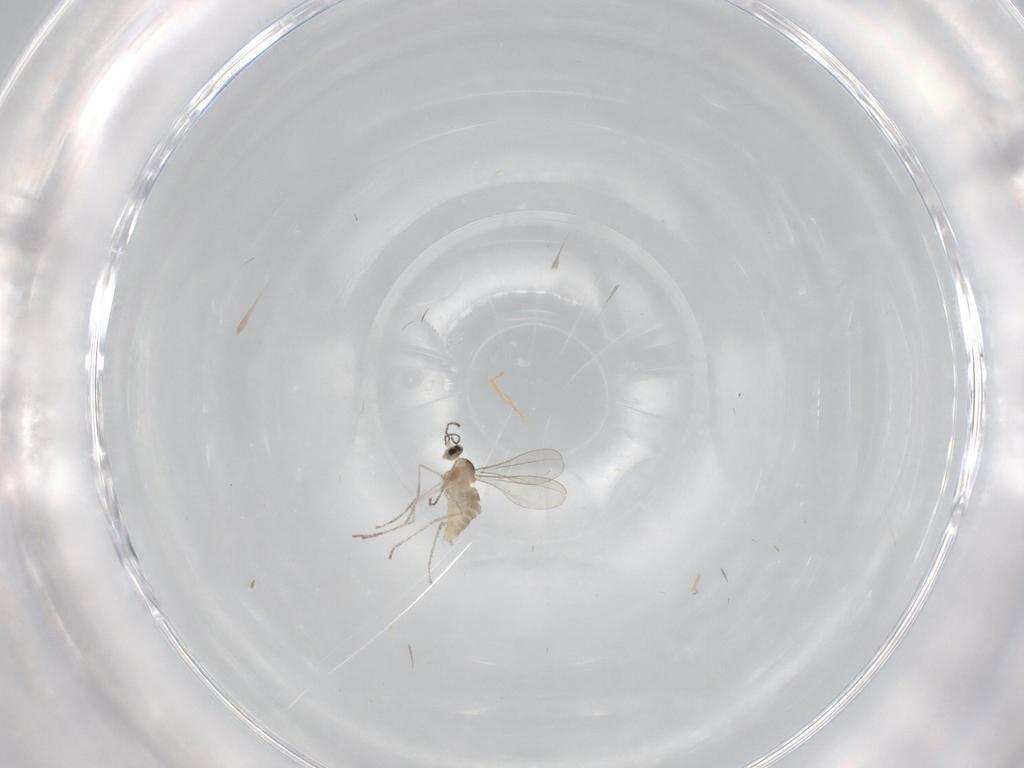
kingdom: Animalia
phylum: Arthropoda
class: Insecta
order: Diptera
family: Cecidomyiidae
